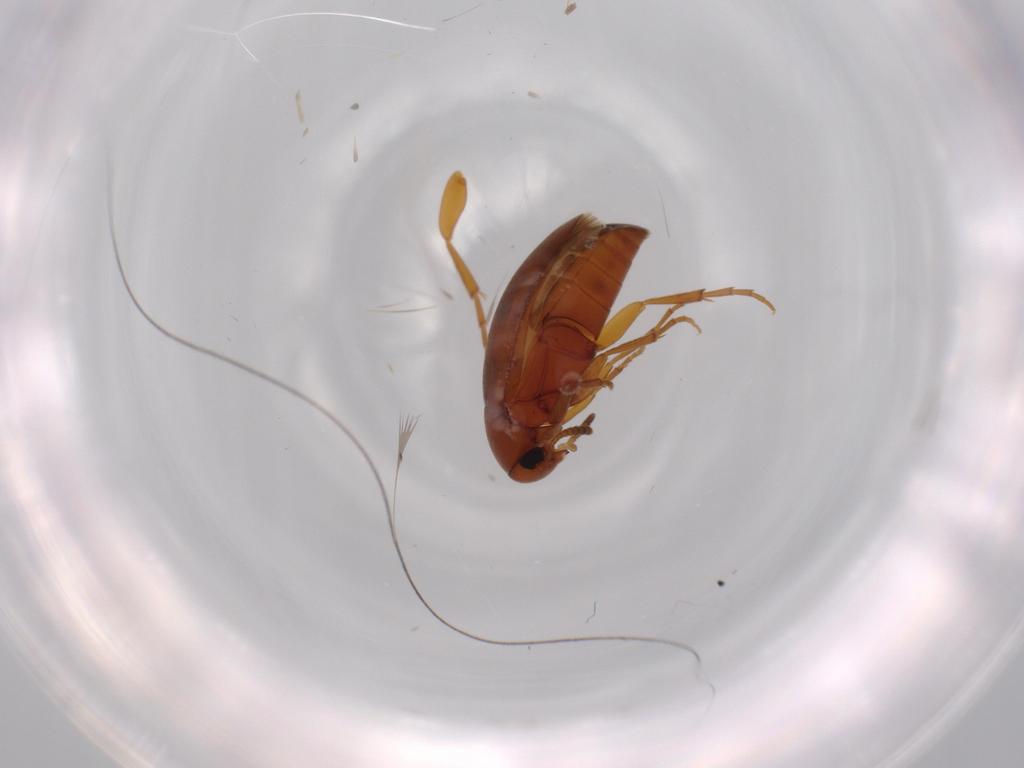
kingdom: Animalia
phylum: Arthropoda
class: Insecta
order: Coleoptera
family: Scraptiidae
